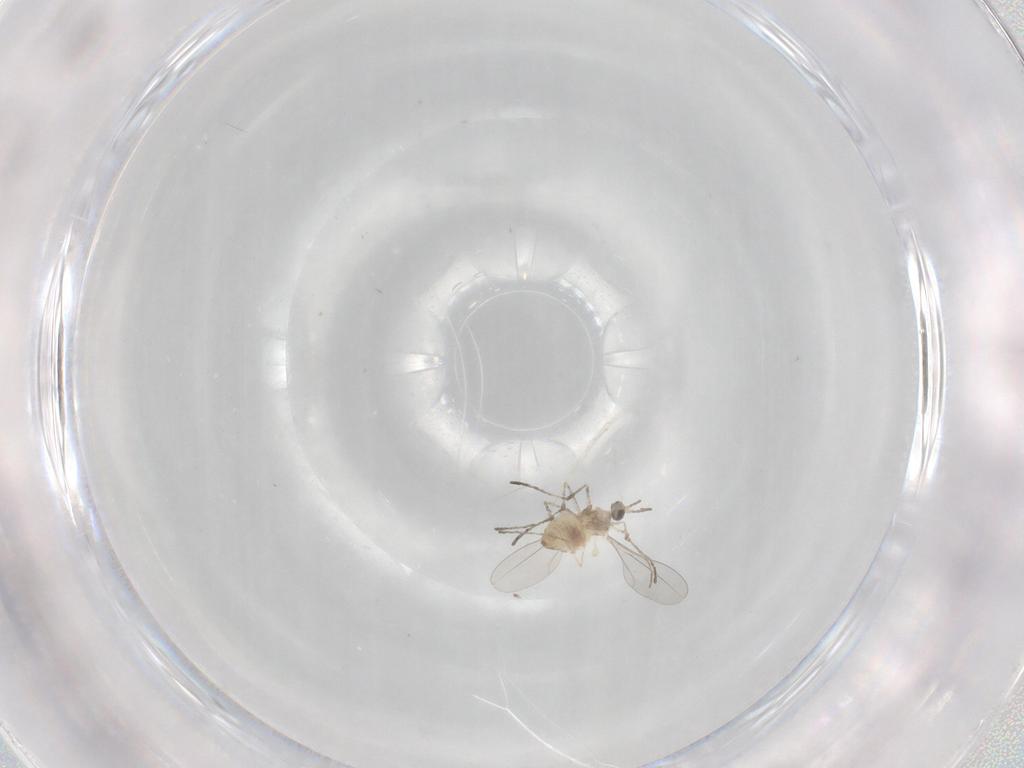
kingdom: Animalia
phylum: Arthropoda
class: Insecta
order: Diptera
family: Cecidomyiidae
